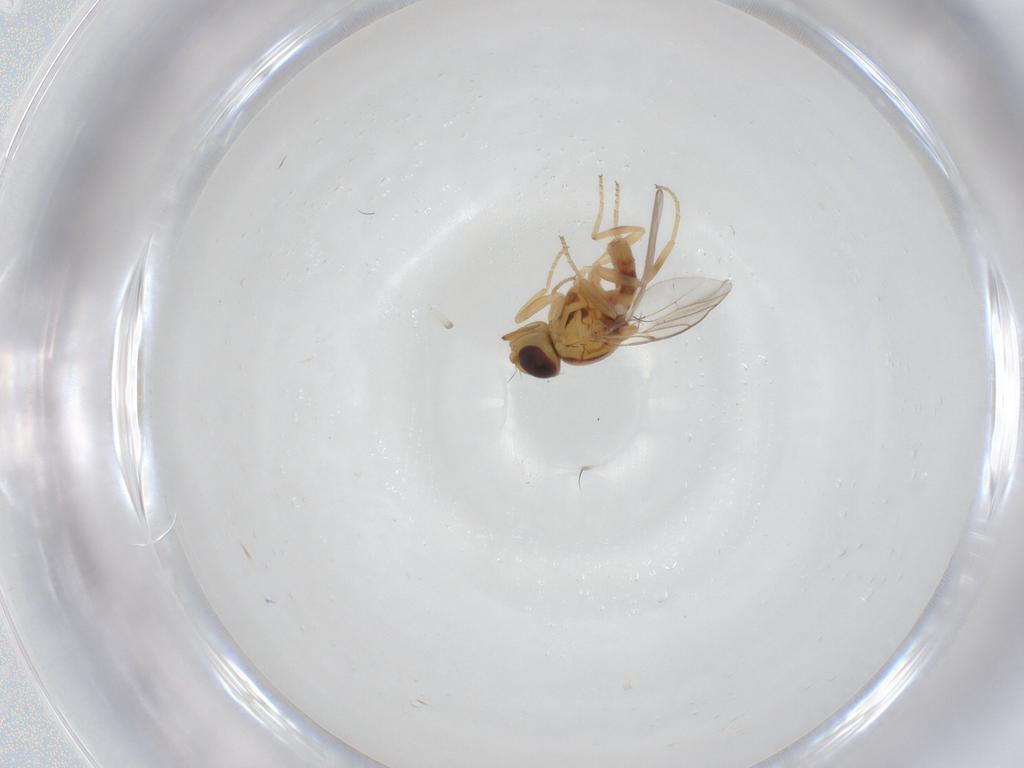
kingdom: Animalia
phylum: Arthropoda
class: Insecta
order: Diptera
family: Chloropidae
